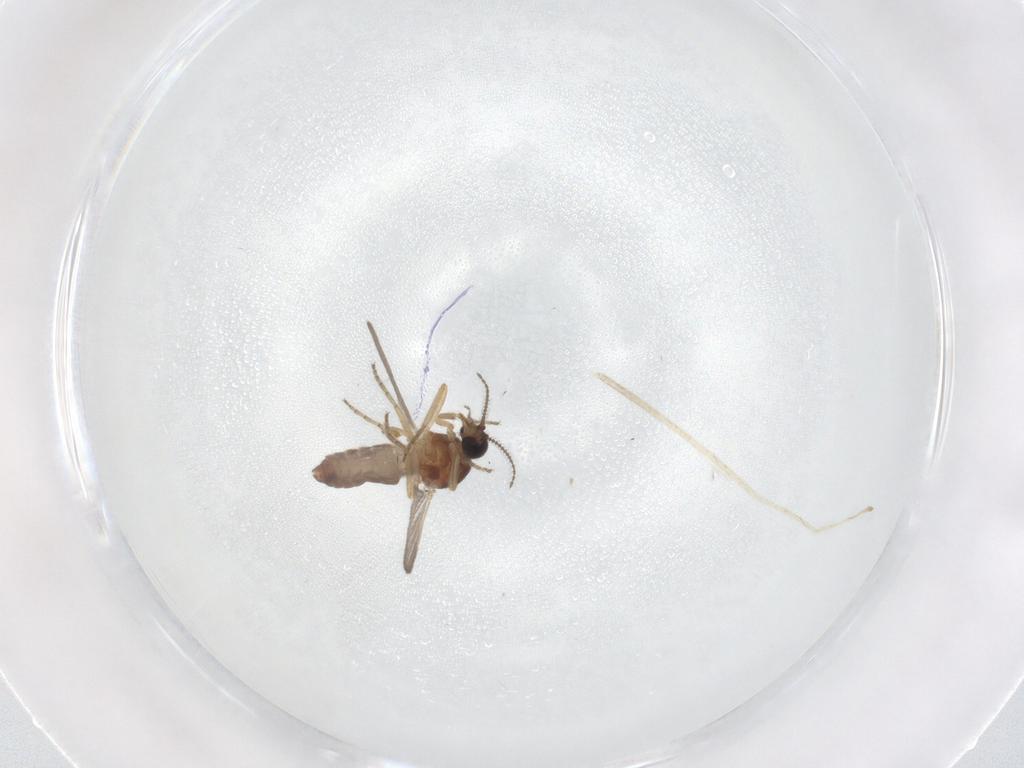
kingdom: Animalia
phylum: Arthropoda
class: Insecta
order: Diptera
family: Ceratopogonidae
